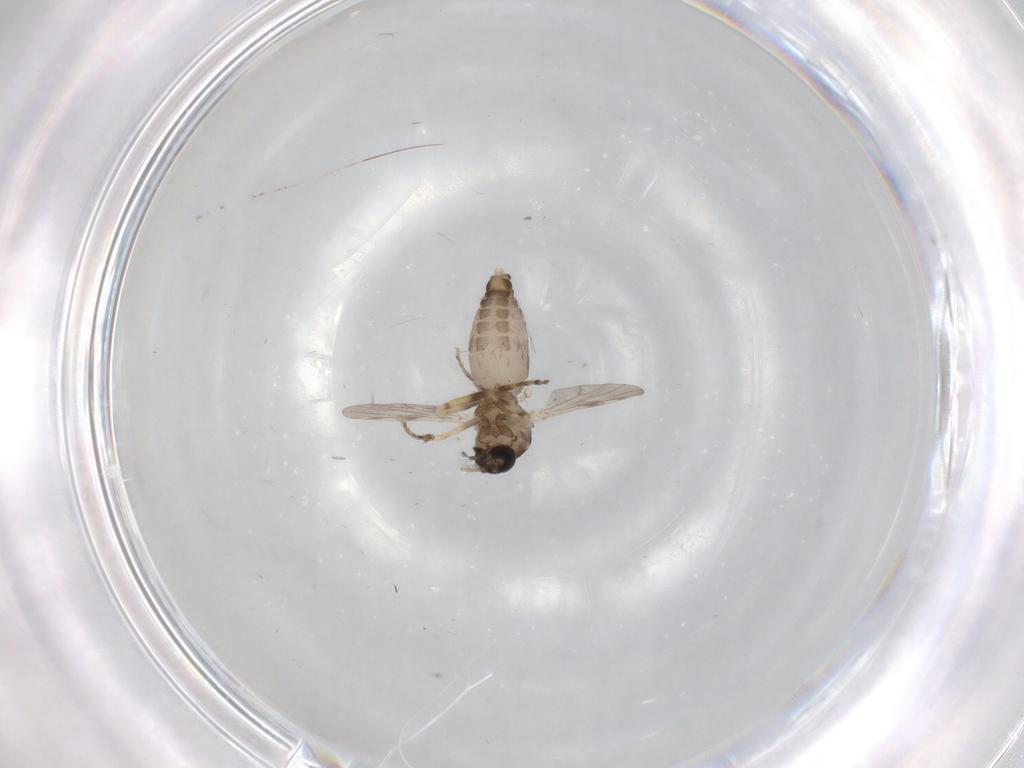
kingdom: Animalia
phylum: Arthropoda
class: Insecta
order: Diptera
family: Ceratopogonidae
